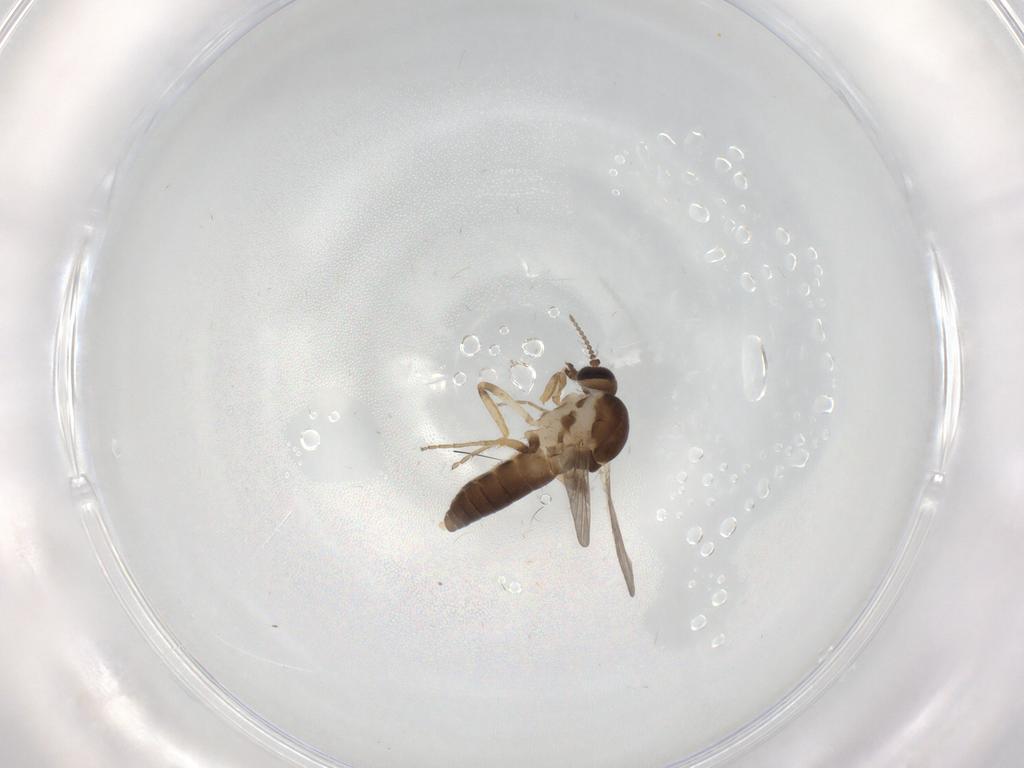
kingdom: Animalia
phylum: Arthropoda
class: Insecta
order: Diptera
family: Ceratopogonidae
